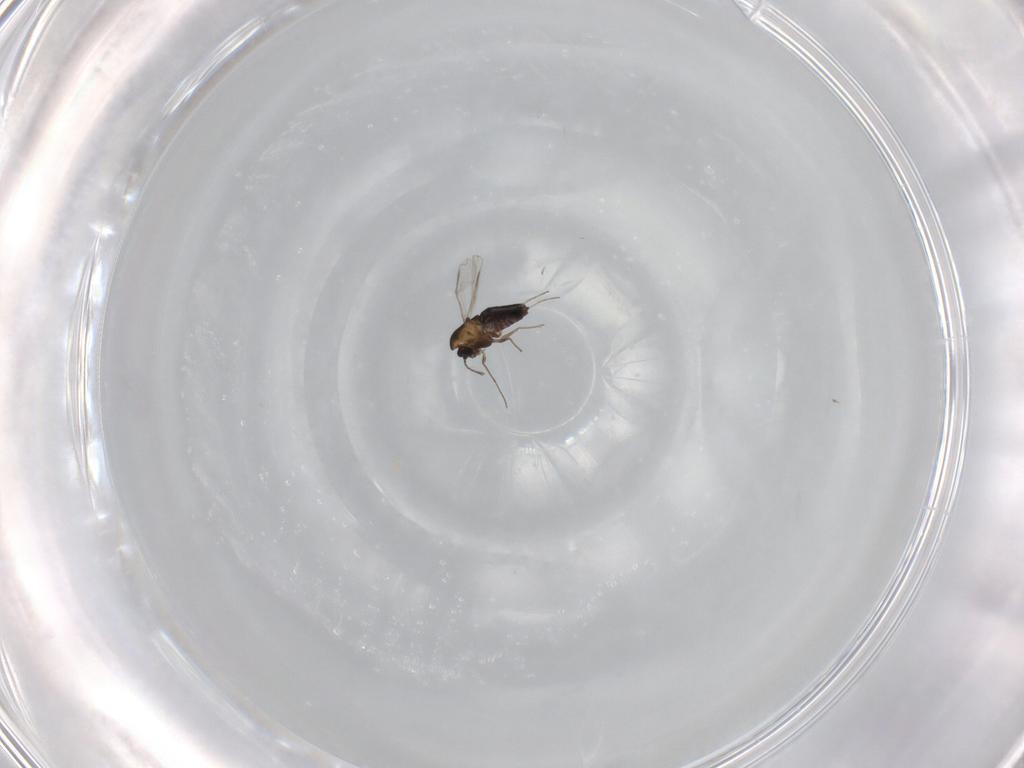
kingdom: Animalia
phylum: Arthropoda
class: Insecta
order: Diptera
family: Chironomidae
